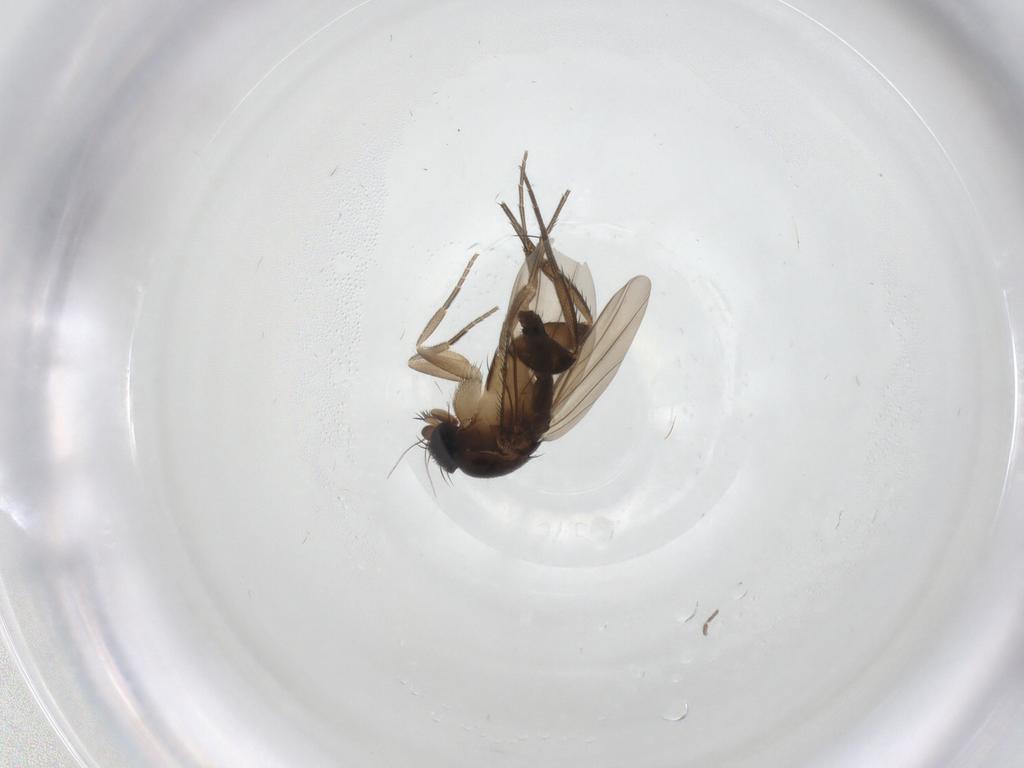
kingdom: Animalia
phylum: Arthropoda
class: Insecta
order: Diptera
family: Phoridae
